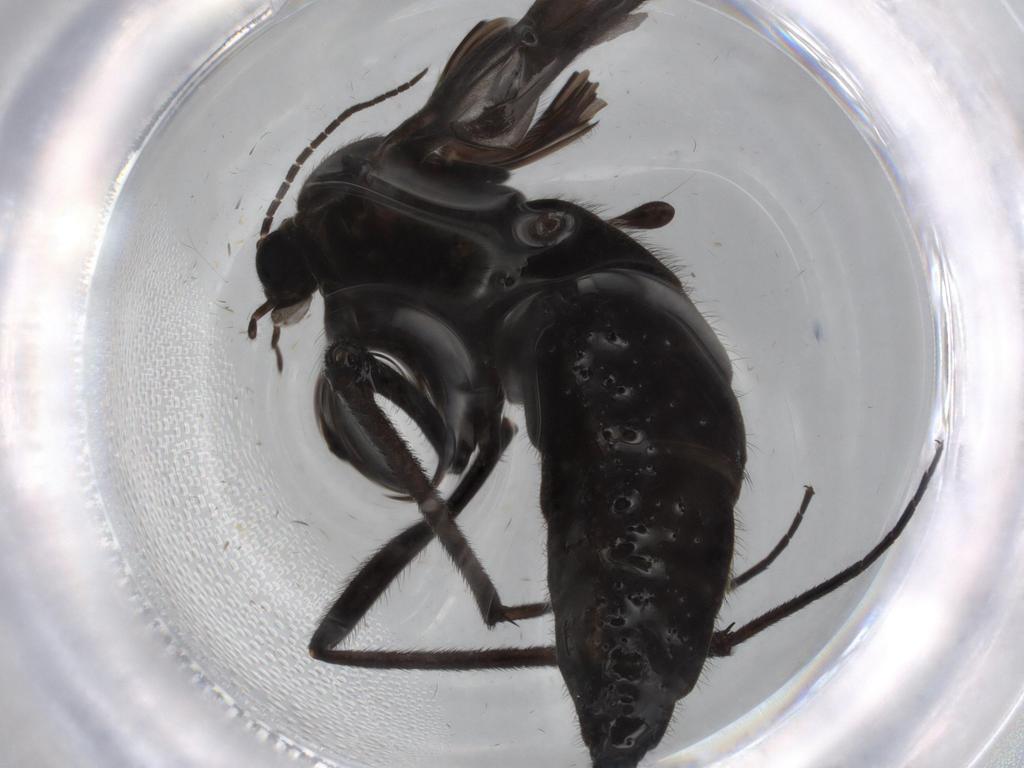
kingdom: Animalia
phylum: Arthropoda
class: Insecta
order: Diptera
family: Sciaridae
